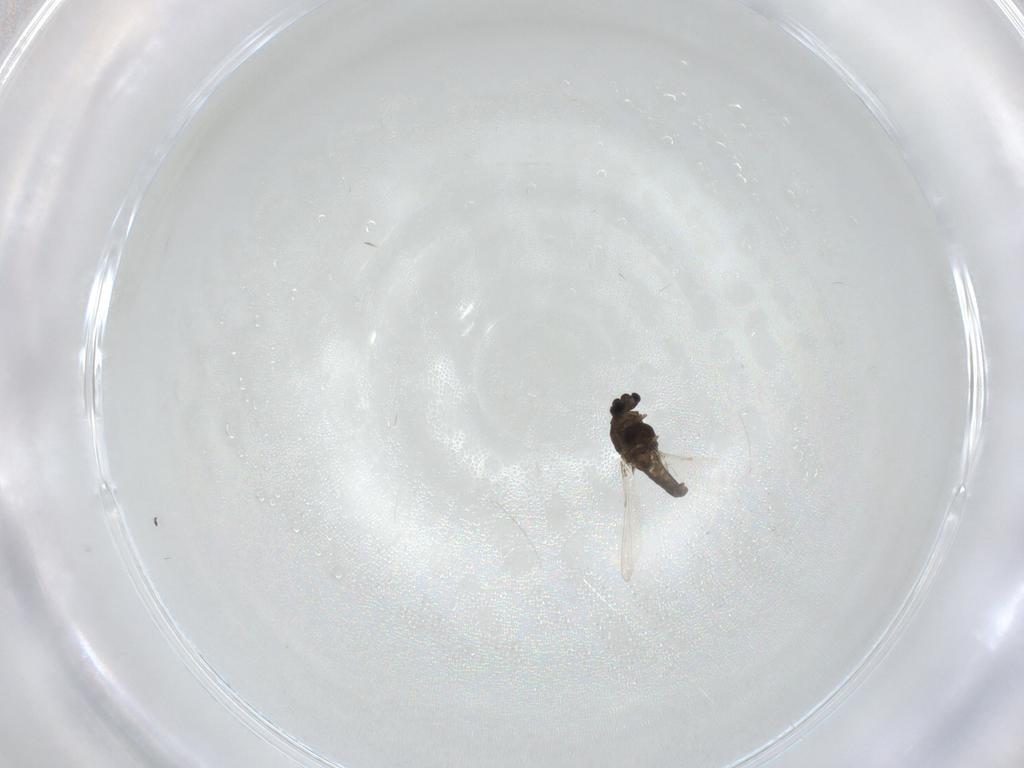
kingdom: Animalia
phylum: Arthropoda
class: Insecta
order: Diptera
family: Chironomidae
